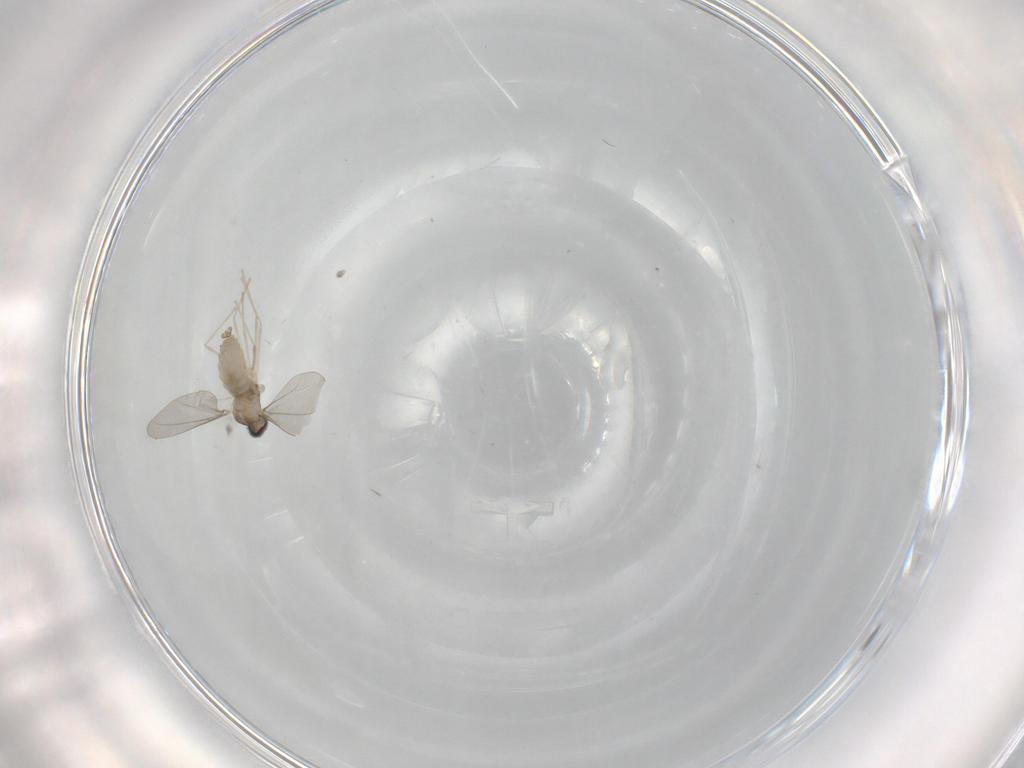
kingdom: Animalia
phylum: Arthropoda
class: Insecta
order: Diptera
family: Cecidomyiidae
